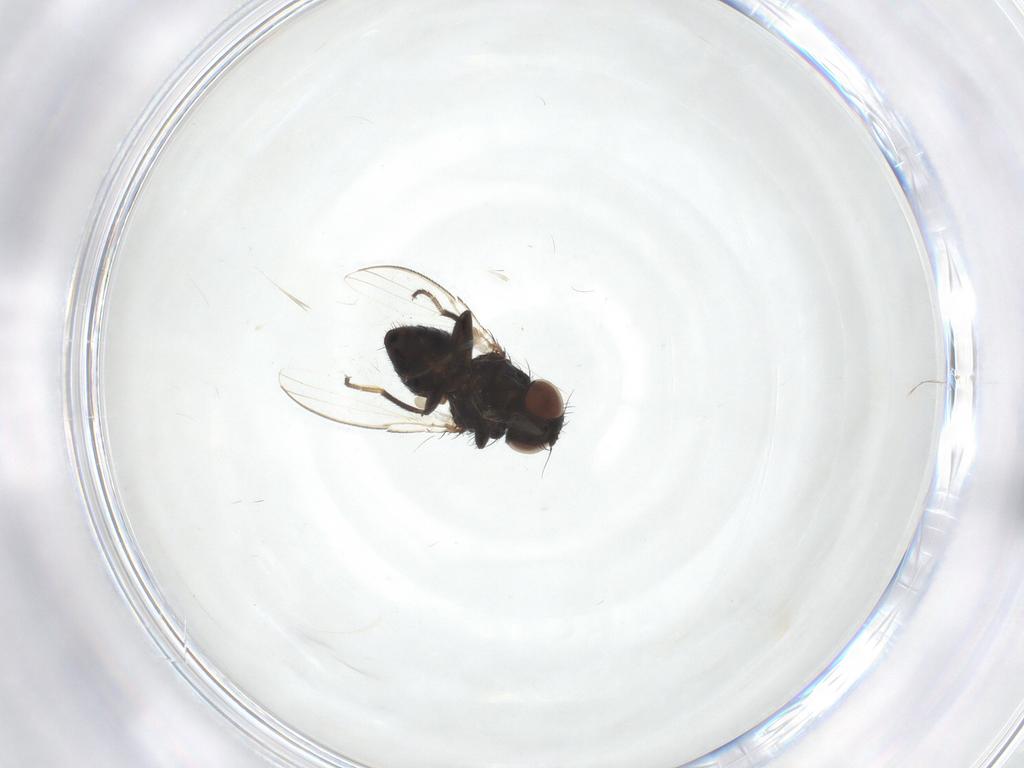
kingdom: Animalia
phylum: Arthropoda
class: Insecta
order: Diptera
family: Milichiidae
